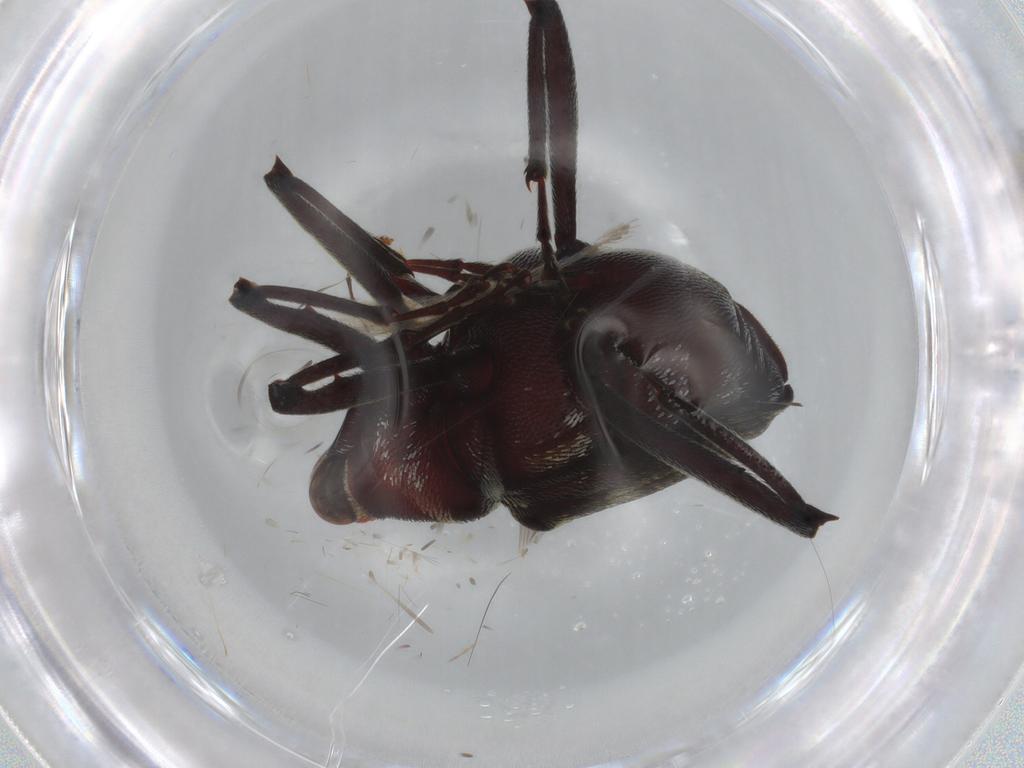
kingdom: Animalia
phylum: Arthropoda
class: Insecta
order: Coleoptera
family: Curculionidae
